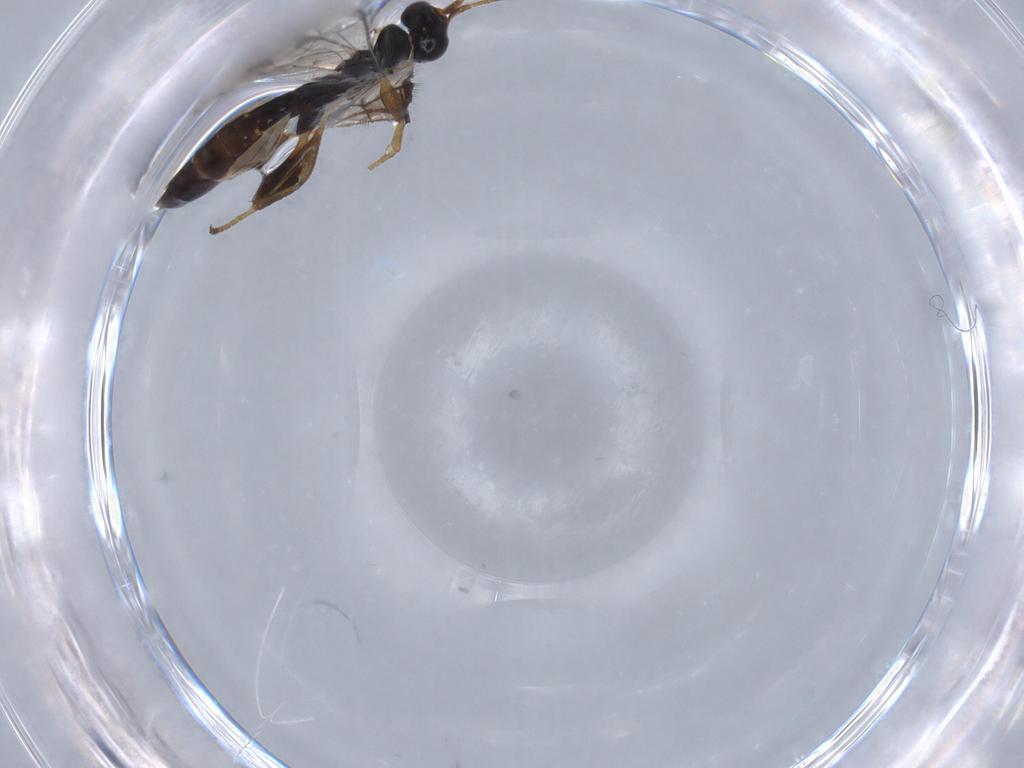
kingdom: Animalia
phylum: Arthropoda
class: Insecta
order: Hymenoptera
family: Ichneumonidae
